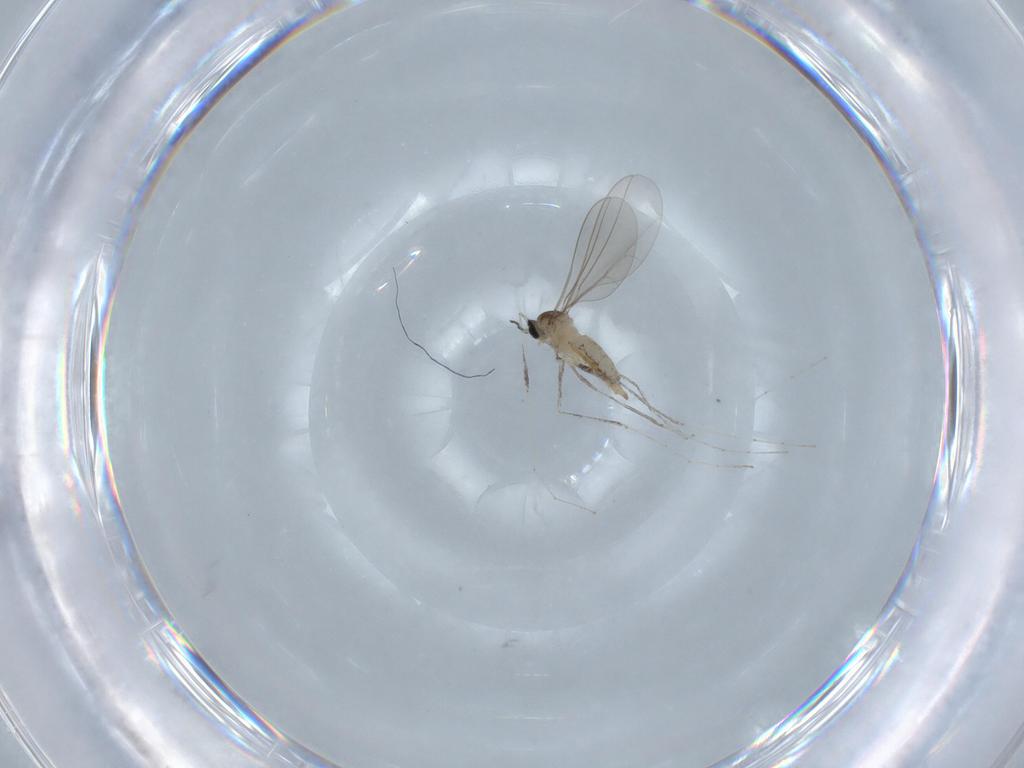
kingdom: Animalia
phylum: Arthropoda
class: Insecta
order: Diptera
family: Cecidomyiidae
